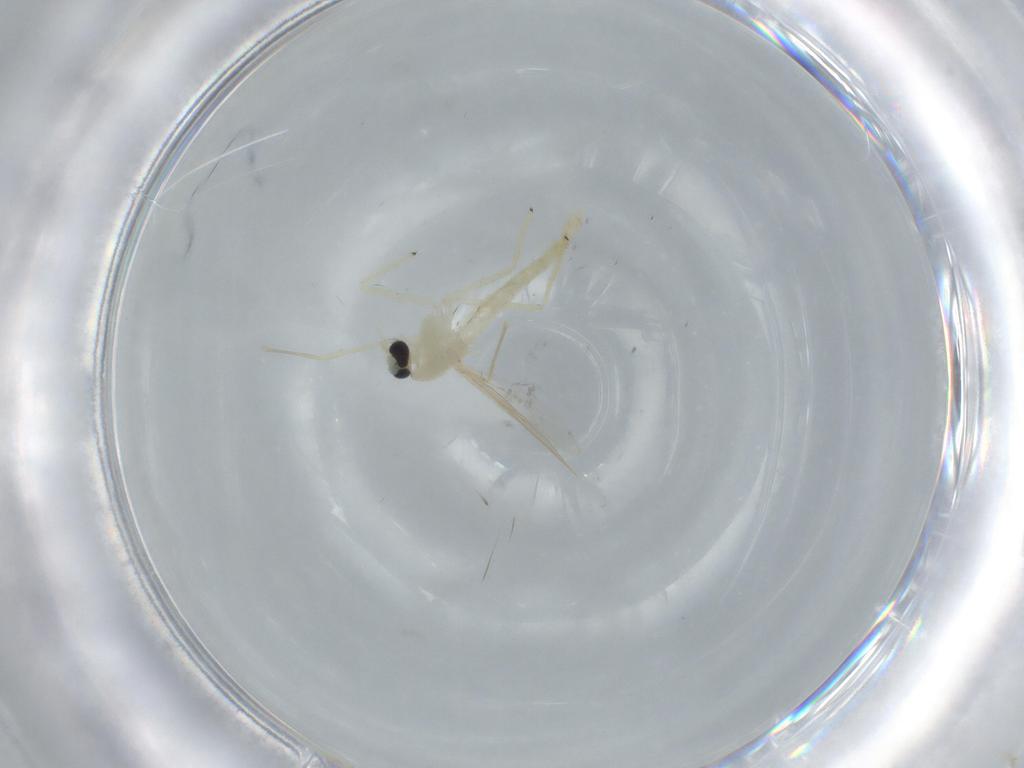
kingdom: Animalia
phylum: Arthropoda
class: Insecta
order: Diptera
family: Chironomidae
